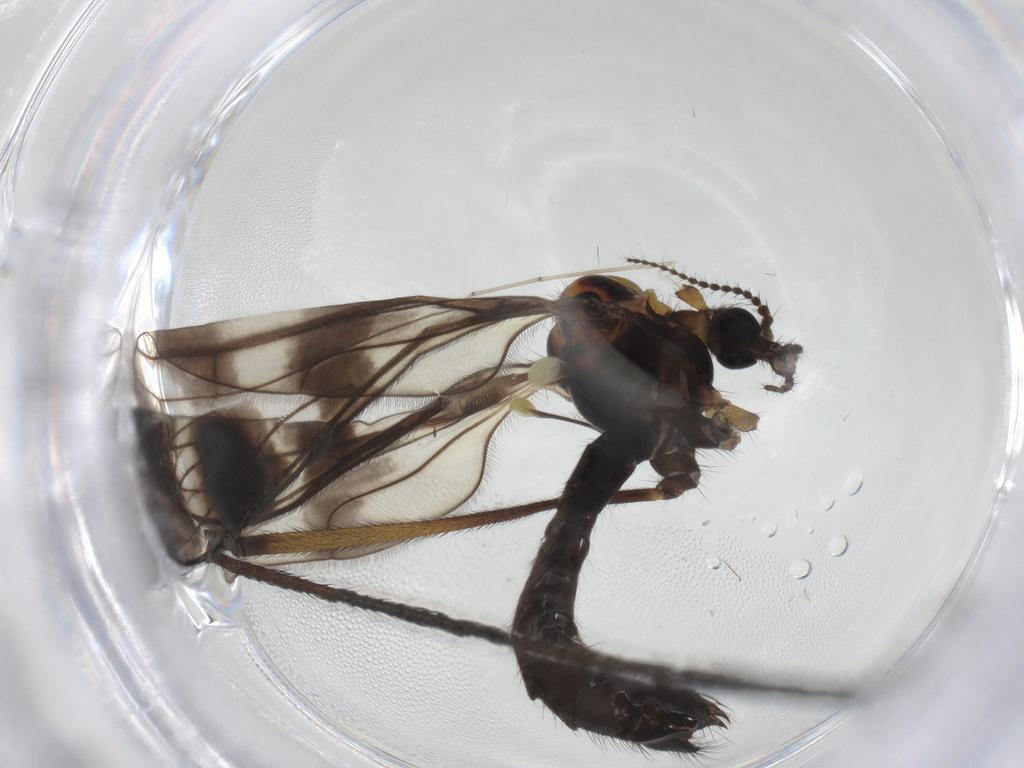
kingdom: Animalia
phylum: Arthropoda
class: Insecta
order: Diptera
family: Limoniidae
